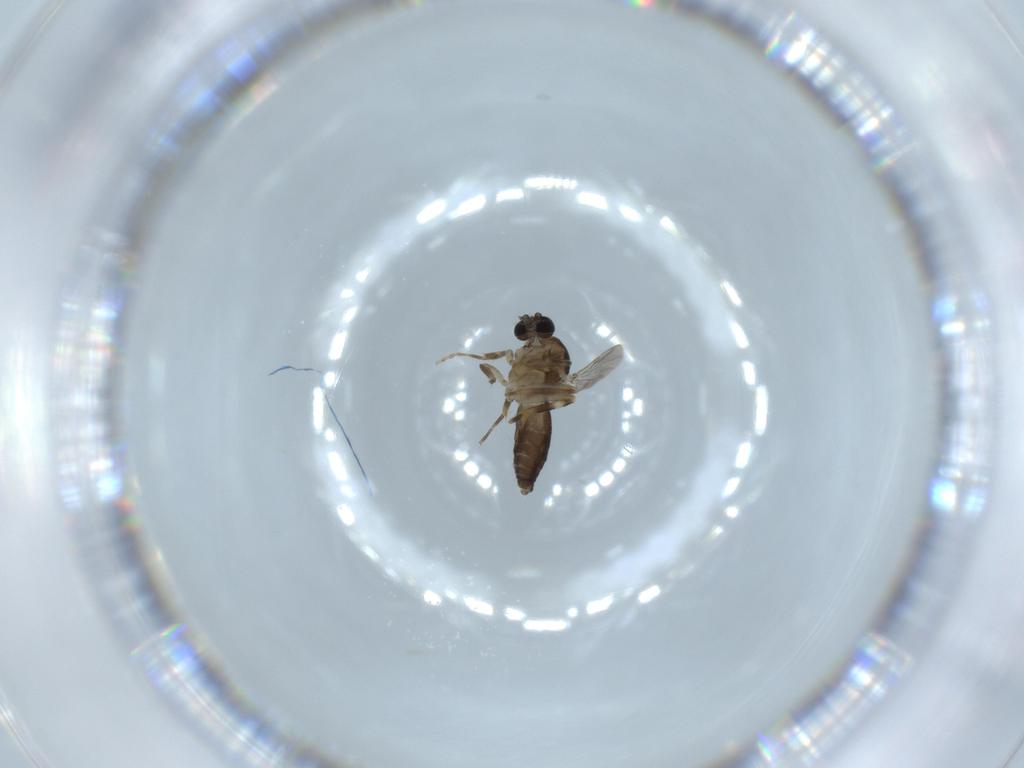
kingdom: Animalia
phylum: Arthropoda
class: Insecta
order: Diptera
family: Ceratopogonidae
